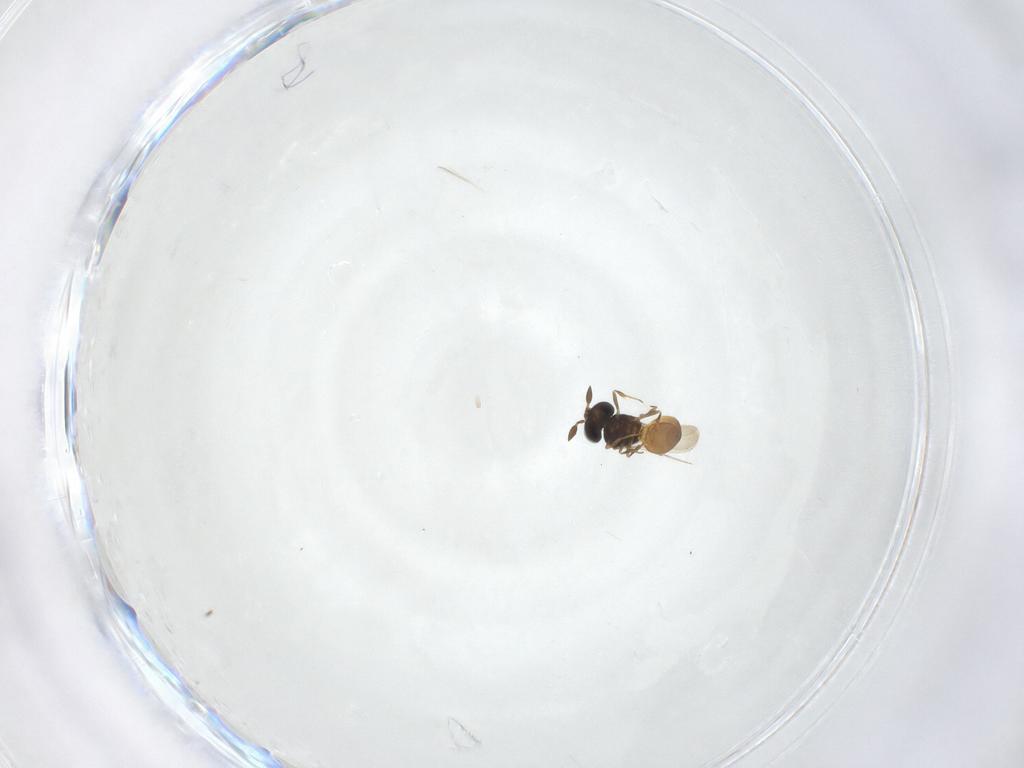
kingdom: Animalia
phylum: Arthropoda
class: Insecta
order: Hymenoptera
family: Scelionidae
